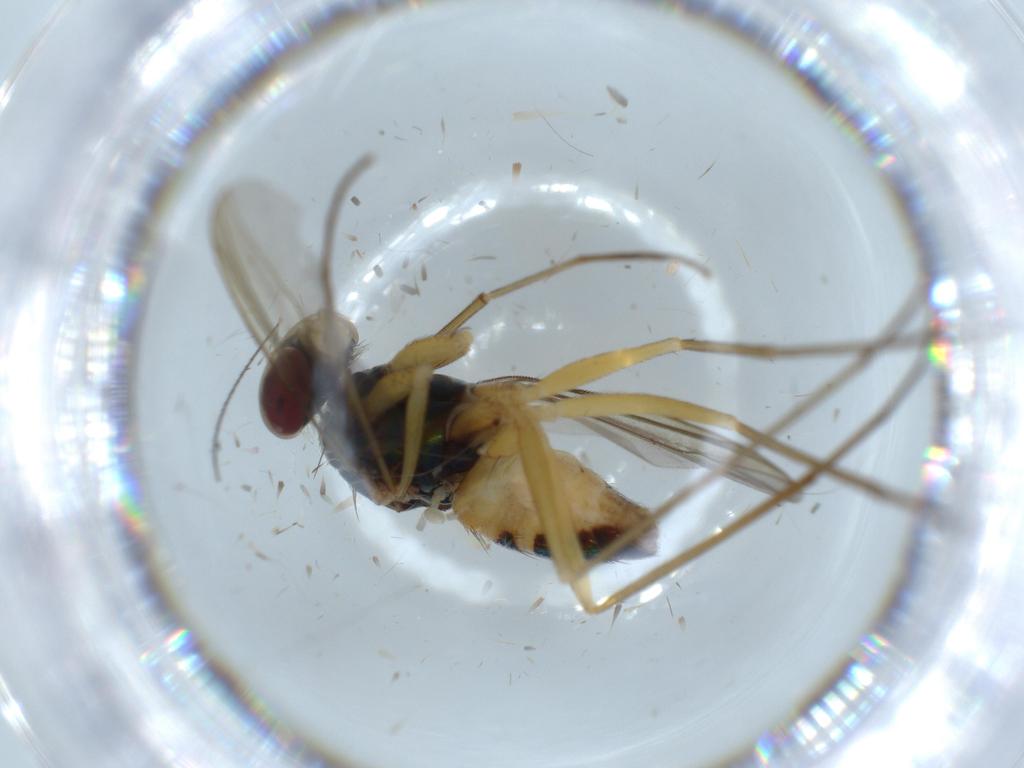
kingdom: Animalia
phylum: Arthropoda
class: Insecta
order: Diptera
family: Dolichopodidae
